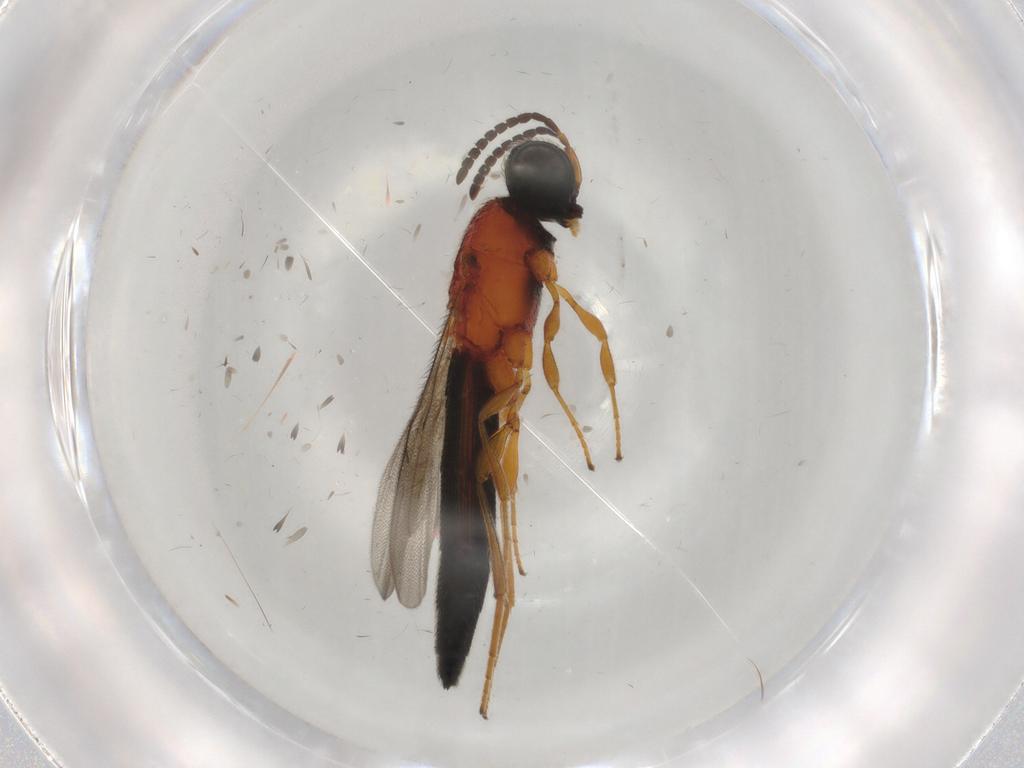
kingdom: Animalia
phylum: Arthropoda
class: Insecta
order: Hymenoptera
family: Scelionidae
